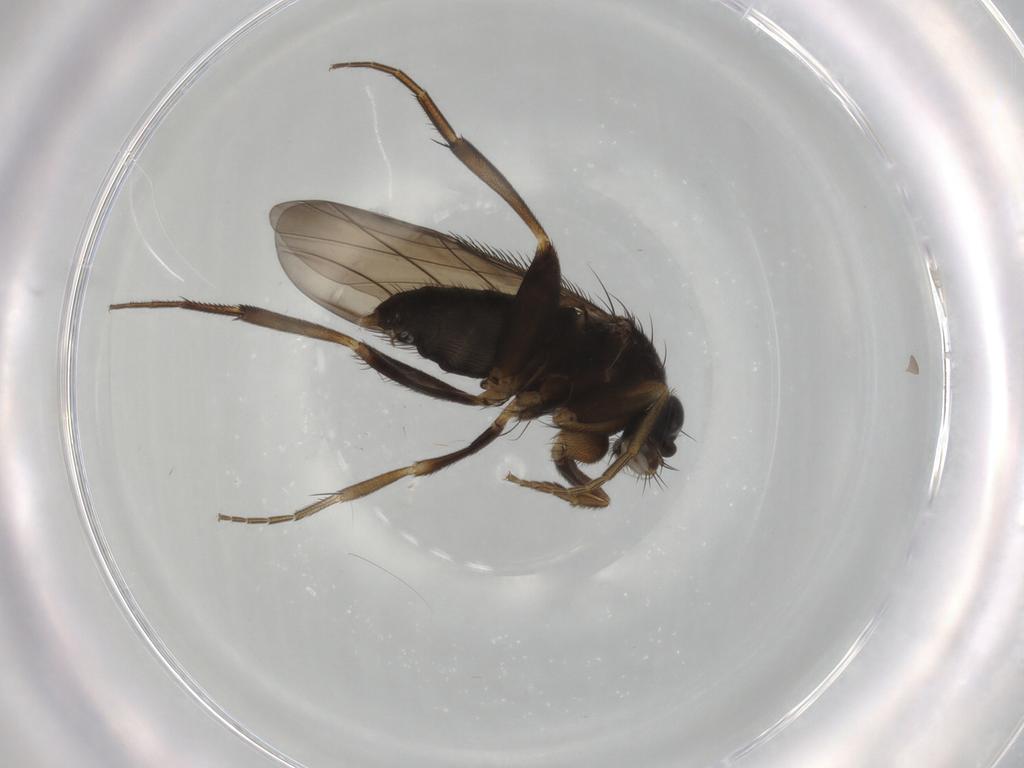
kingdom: Animalia
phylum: Arthropoda
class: Insecta
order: Diptera
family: Phoridae
